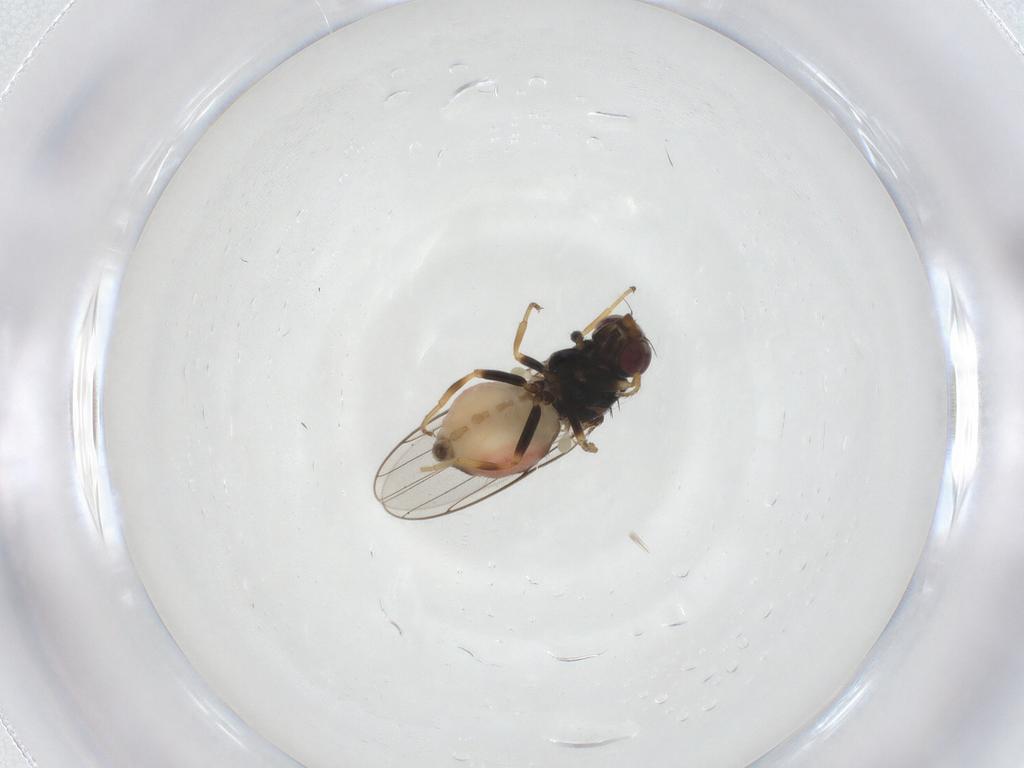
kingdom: Animalia
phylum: Arthropoda
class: Insecta
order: Diptera
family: Chloropidae
